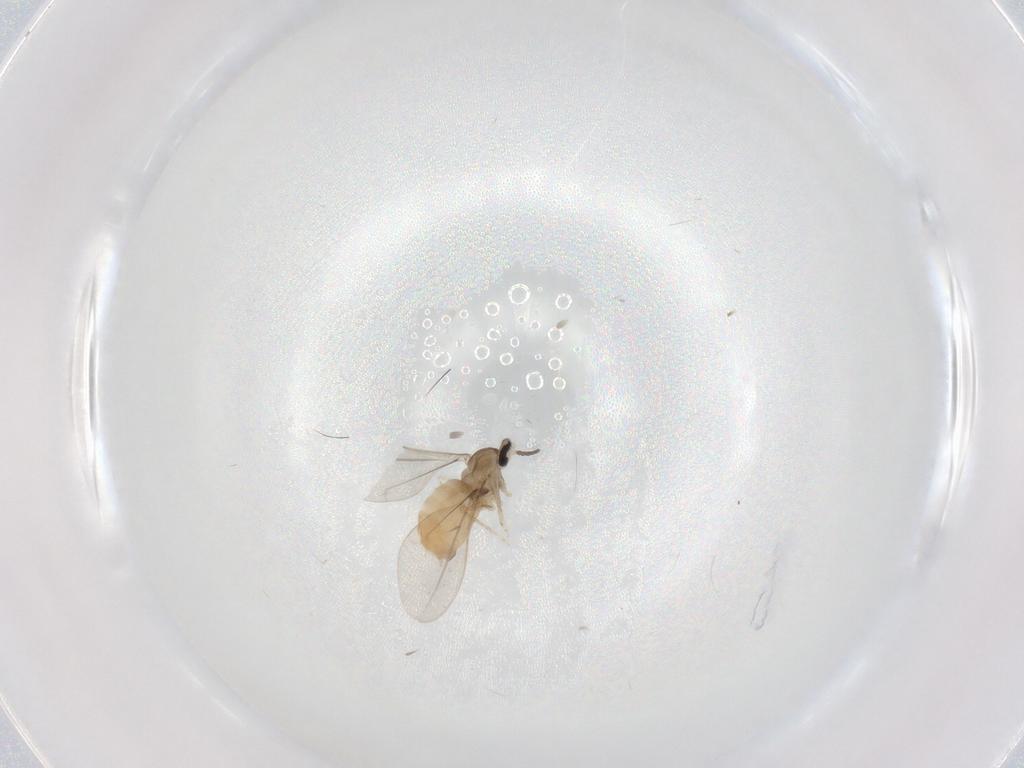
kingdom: Animalia
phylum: Arthropoda
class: Insecta
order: Diptera
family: Cecidomyiidae
